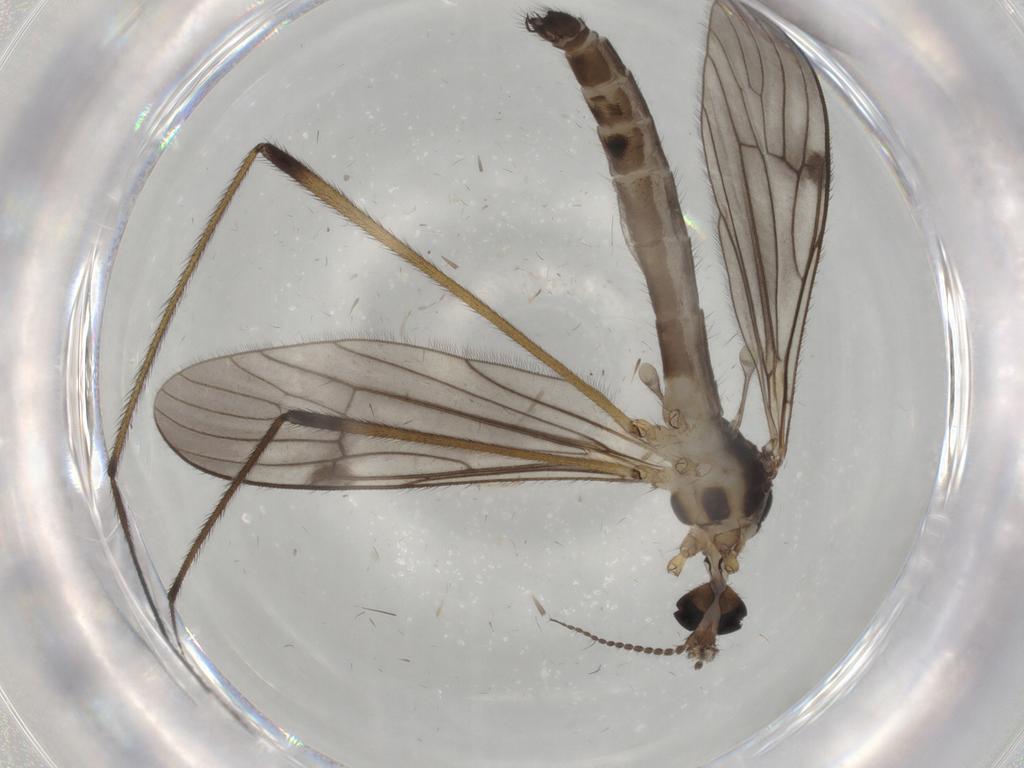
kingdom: Animalia
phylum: Arthropoda
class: Insecta
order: Diptera
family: Limoniidae
